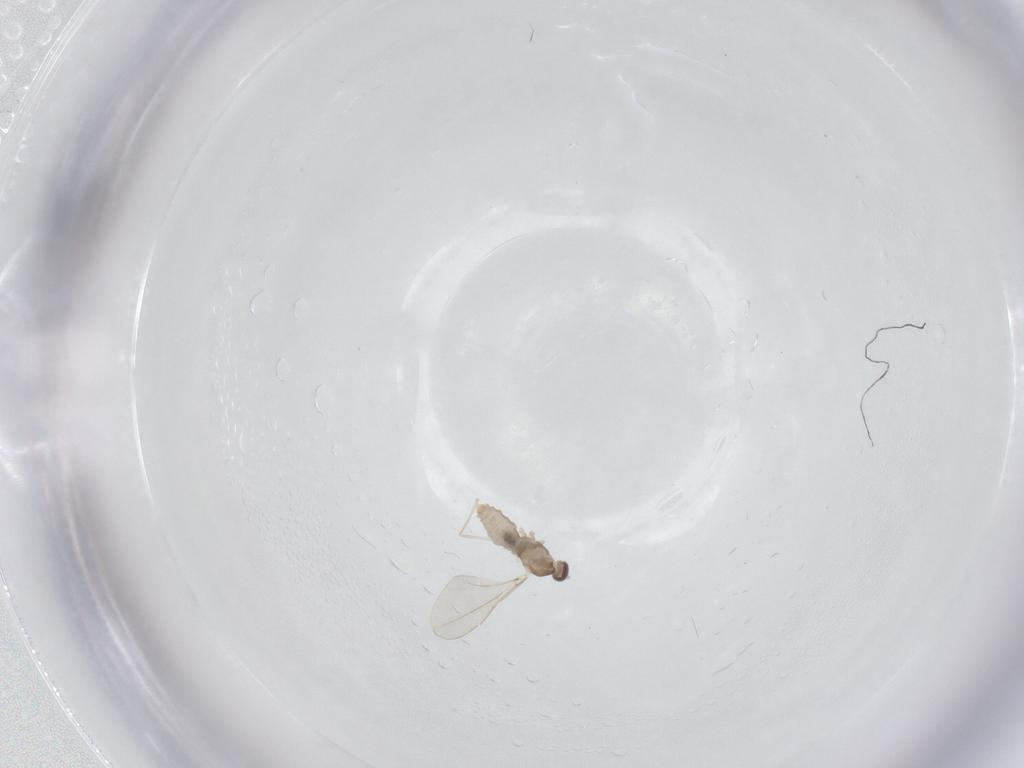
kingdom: Animalia
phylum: Arthropoda
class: Insecta
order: Diptera
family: Cecidomyiidae
